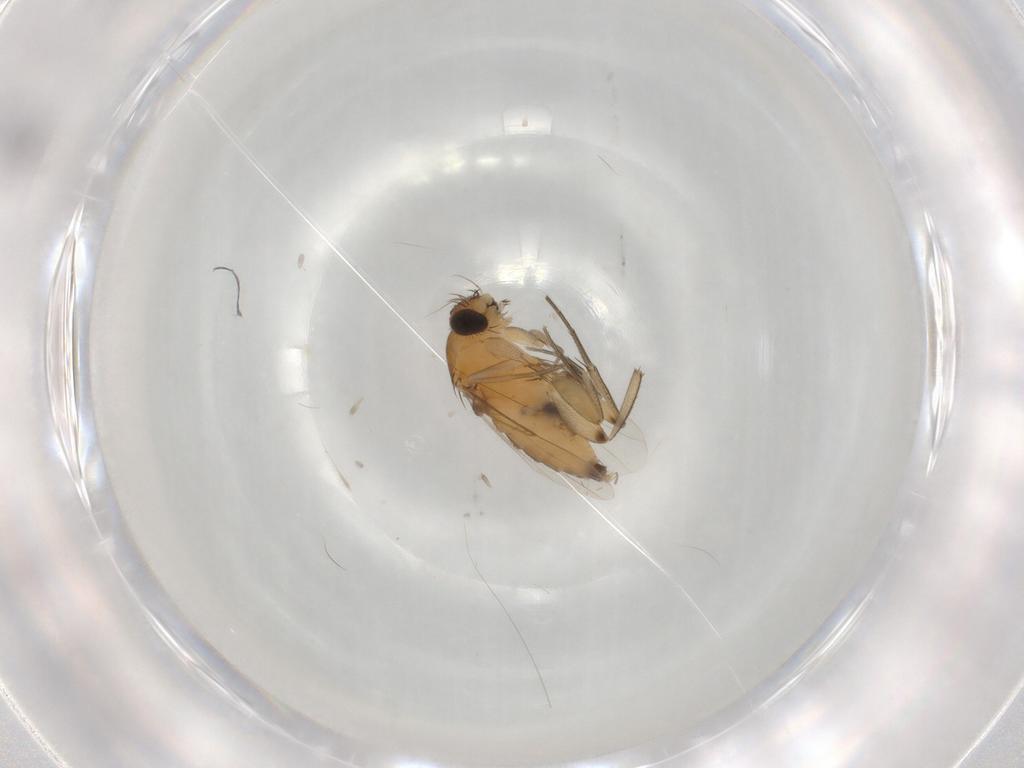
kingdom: Animalia
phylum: Arthropoda
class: Insecta
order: Diptera
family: Phoridae
